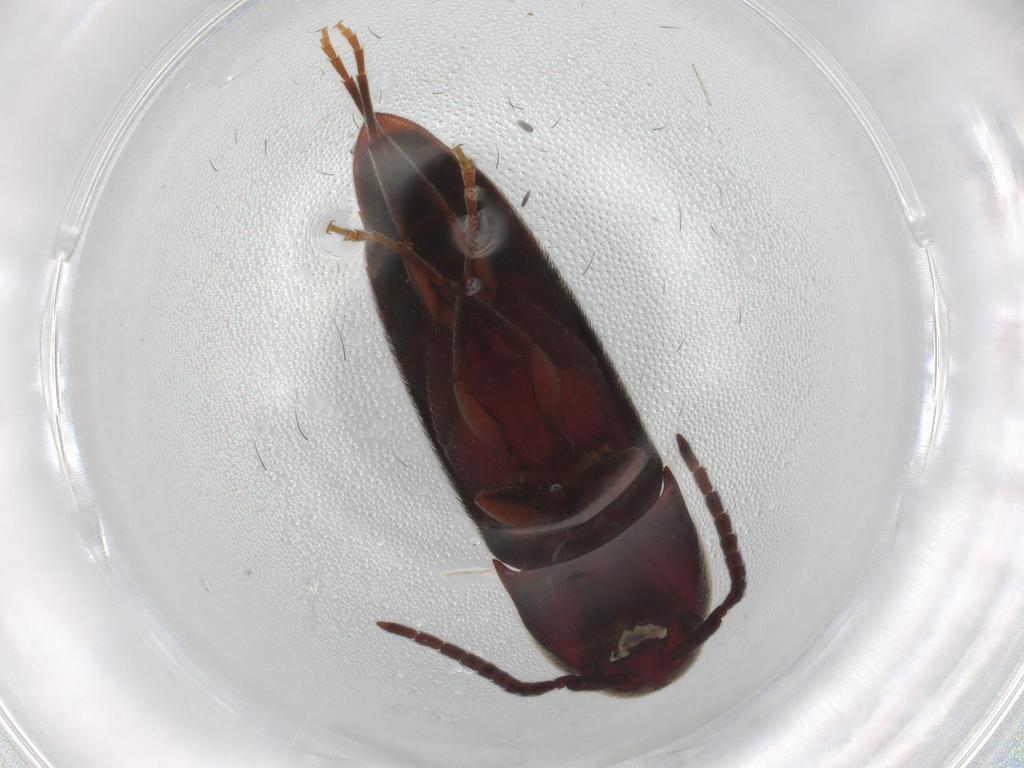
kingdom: Animalia
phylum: Arthropoda
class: Insecta
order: Coleoptera
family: Eucnemidae
